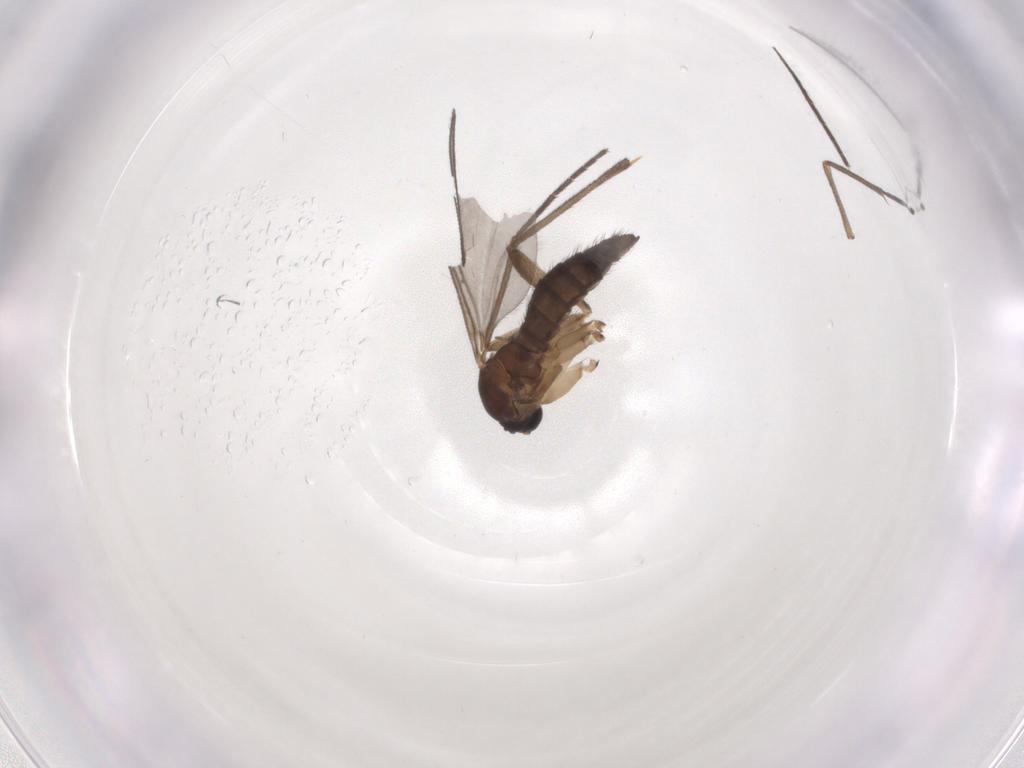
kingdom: Animalia
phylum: Arthropoda
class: Insecta
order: Diptera
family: Sciaridae
